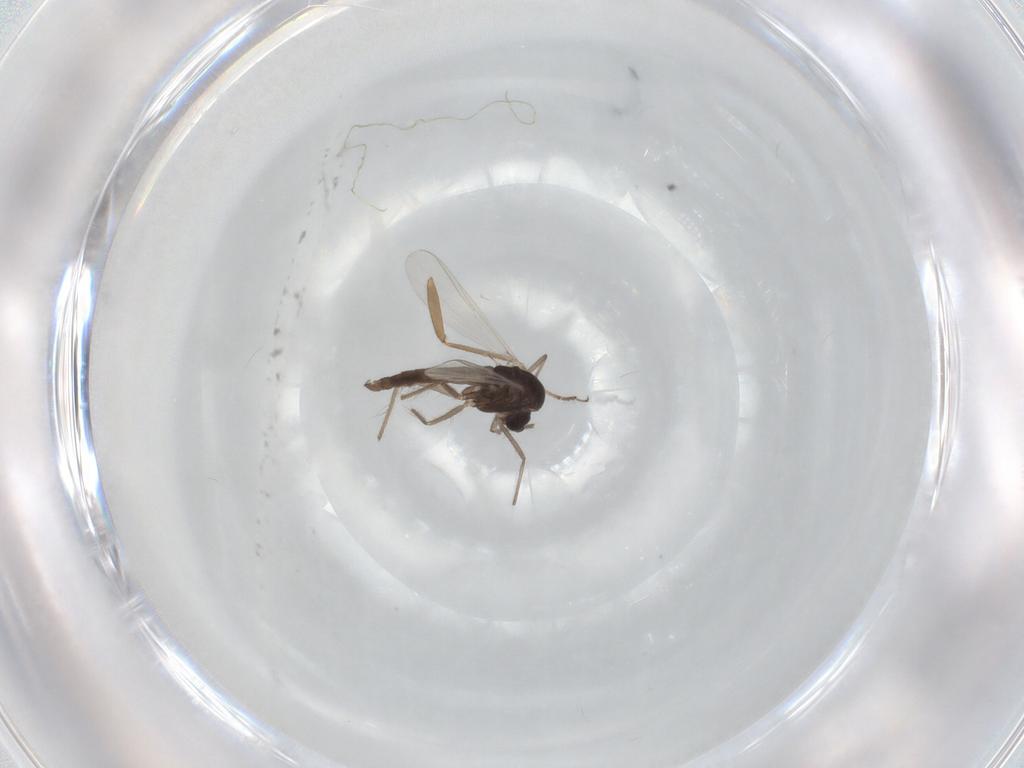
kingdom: Animalia
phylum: Arthropoda
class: Insecta
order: Diptera
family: Chironomidae
